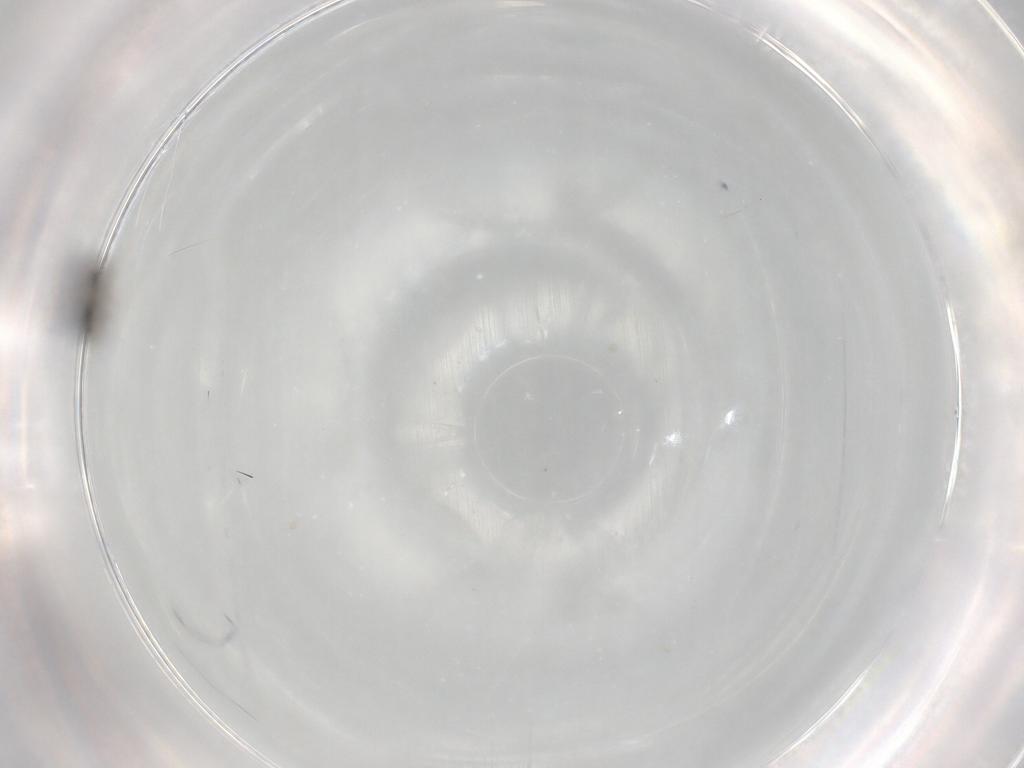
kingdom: Animalia
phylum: Arthropoda
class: Insecta
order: Hymenoptera
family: Scelionidae
